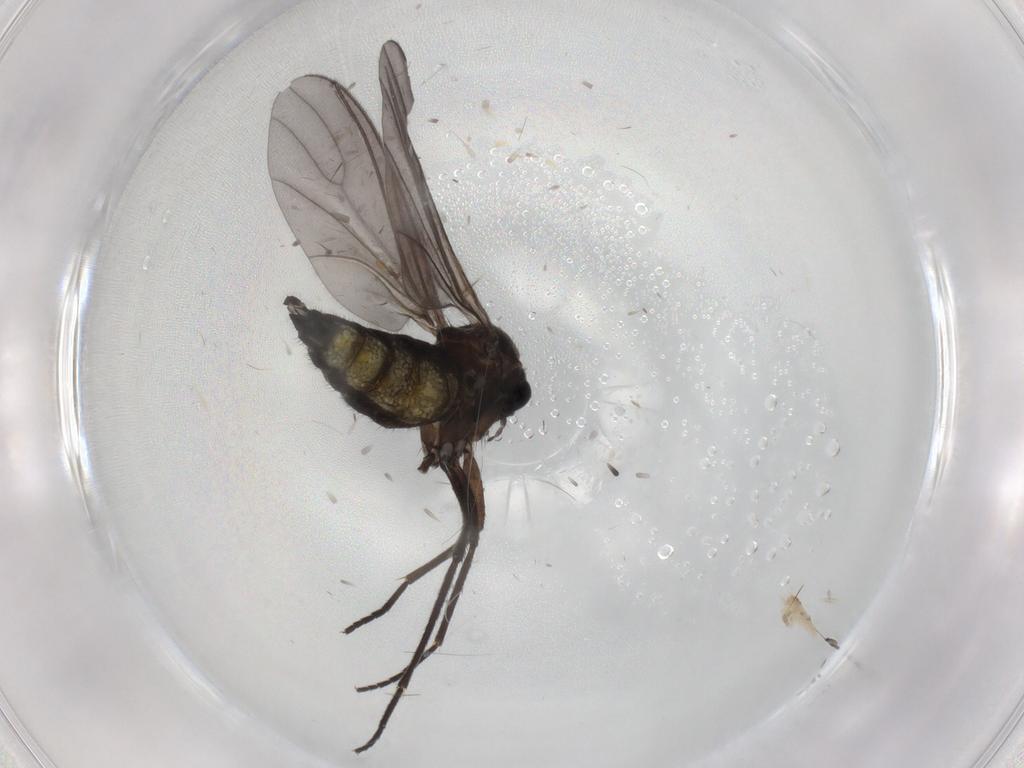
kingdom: Animalia
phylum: Arthropoda
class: Insecta
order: Diptera
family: Sciaridae
